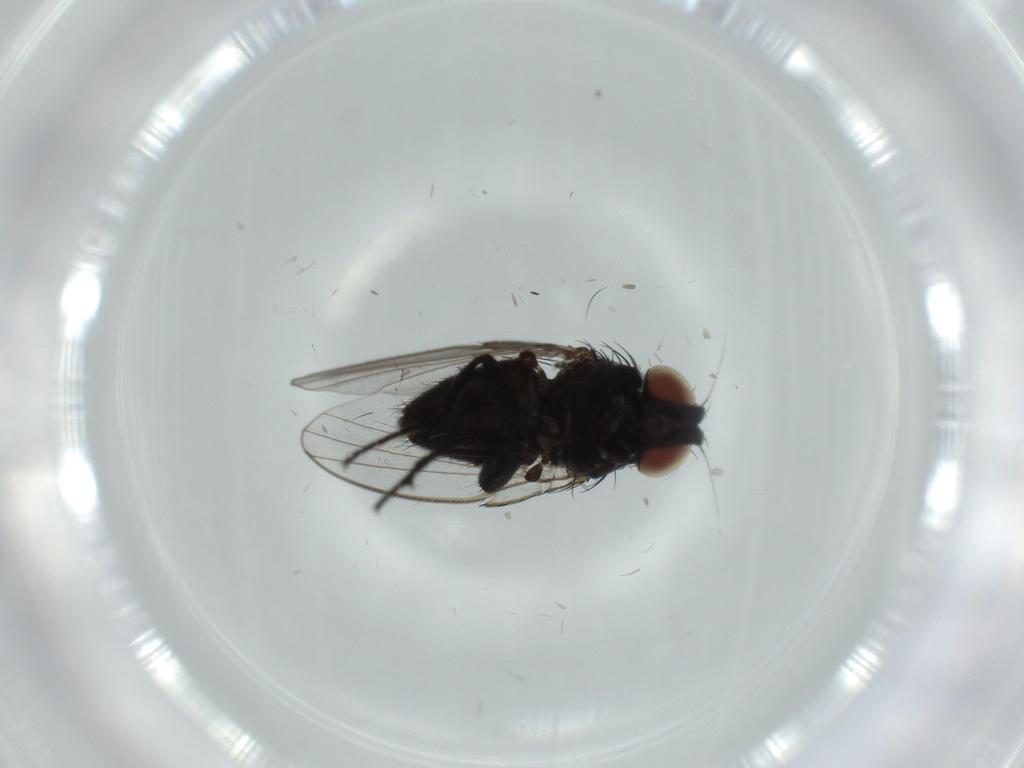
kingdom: Animalia
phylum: Arthropoda
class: Insecta
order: Diptera
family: Milichiidae
